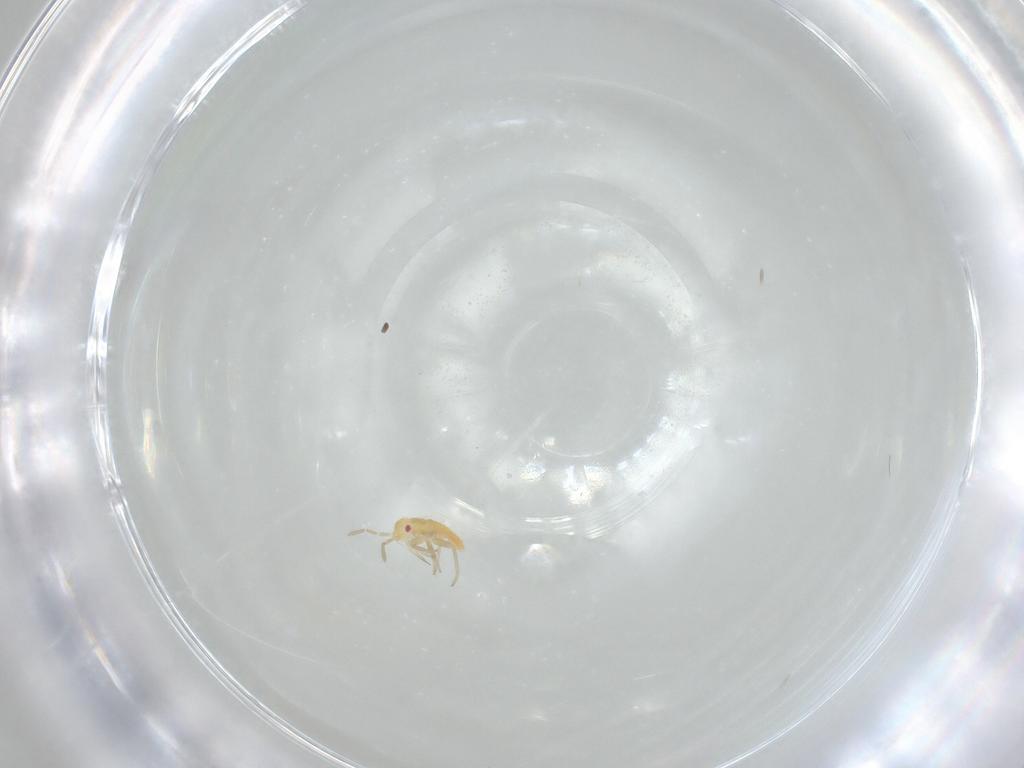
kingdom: Animalia
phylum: Arthropoda
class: Insecta
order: Hemiptera
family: Miridae
